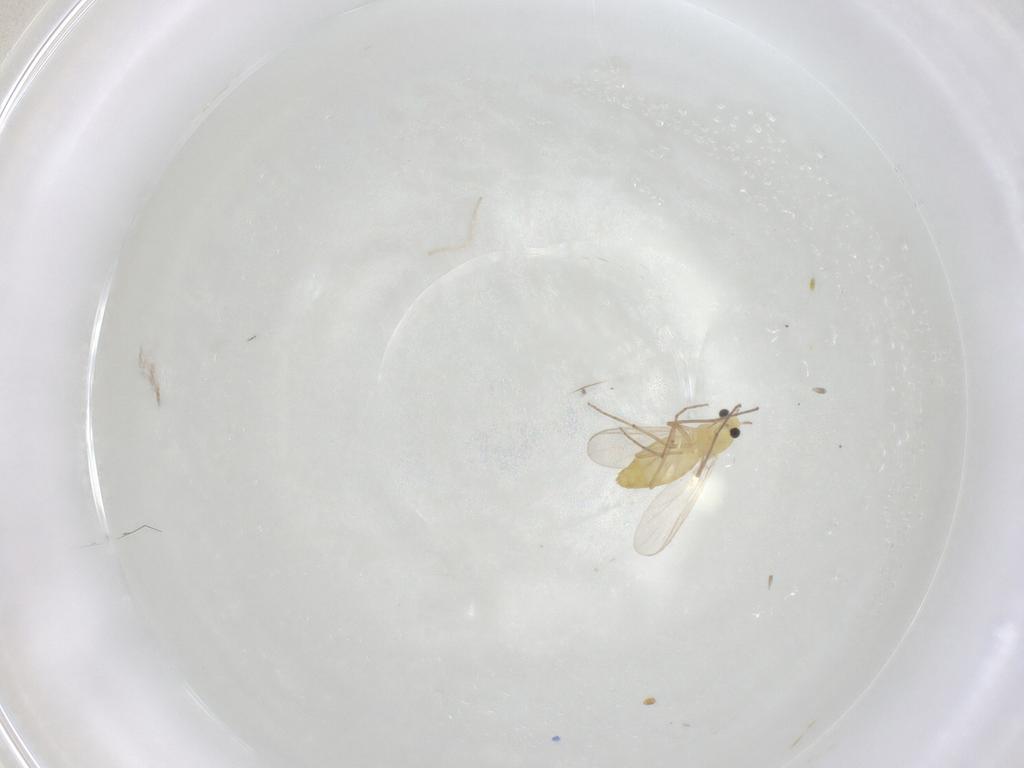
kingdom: Animalia
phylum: Arthropoda
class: Insecta
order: Diptera
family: Chironomidae
